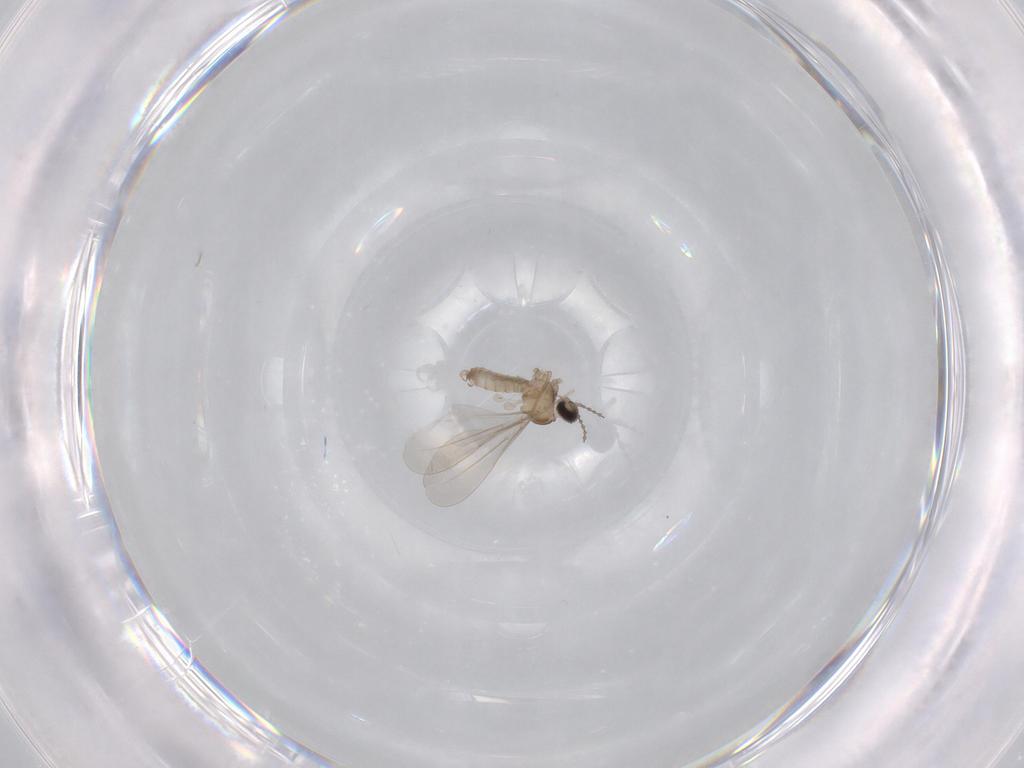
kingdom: Animalia
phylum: Arthropoda
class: Insecta
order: Diptera
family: Cecidomyiidae
